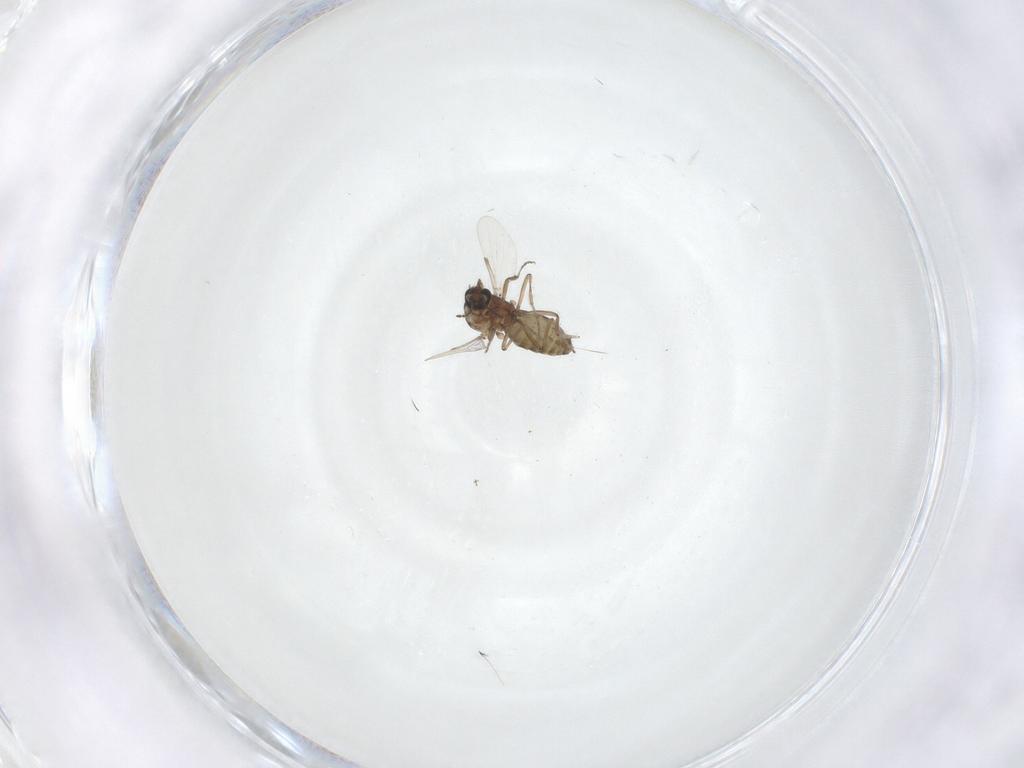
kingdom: Animalia
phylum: Arthropoda
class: Insecta
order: Diptera
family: Ceratopogonidae
